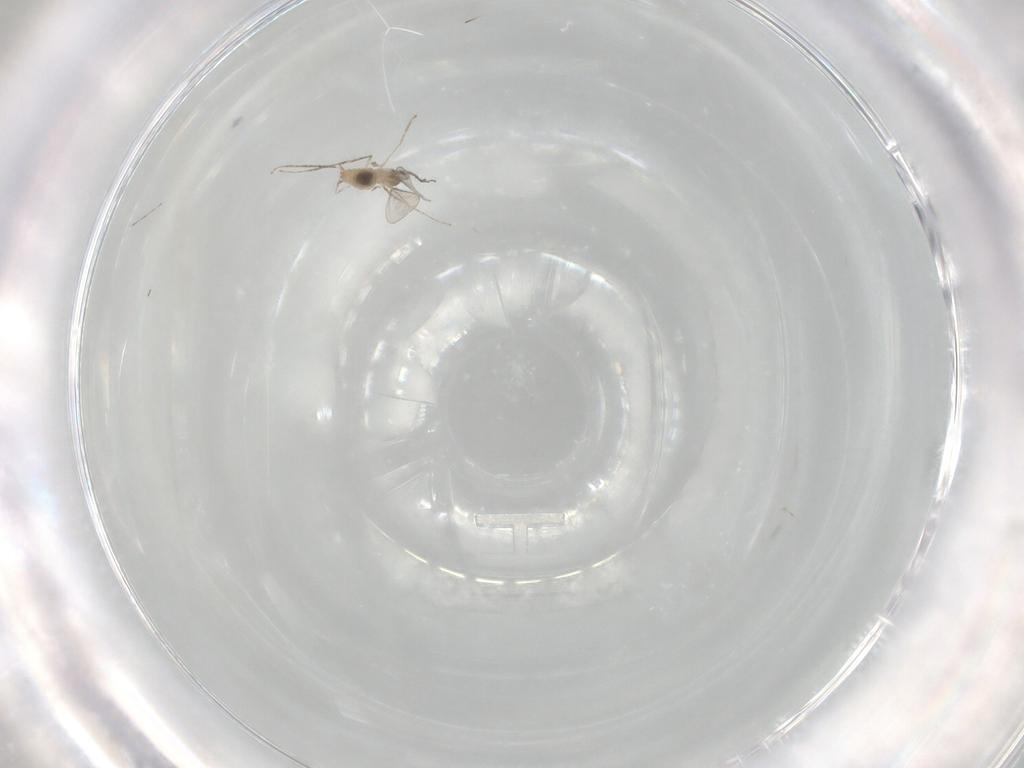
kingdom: Animalia
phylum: Arthropoda
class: Insecta
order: Diptera
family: Cecidomyiidae
